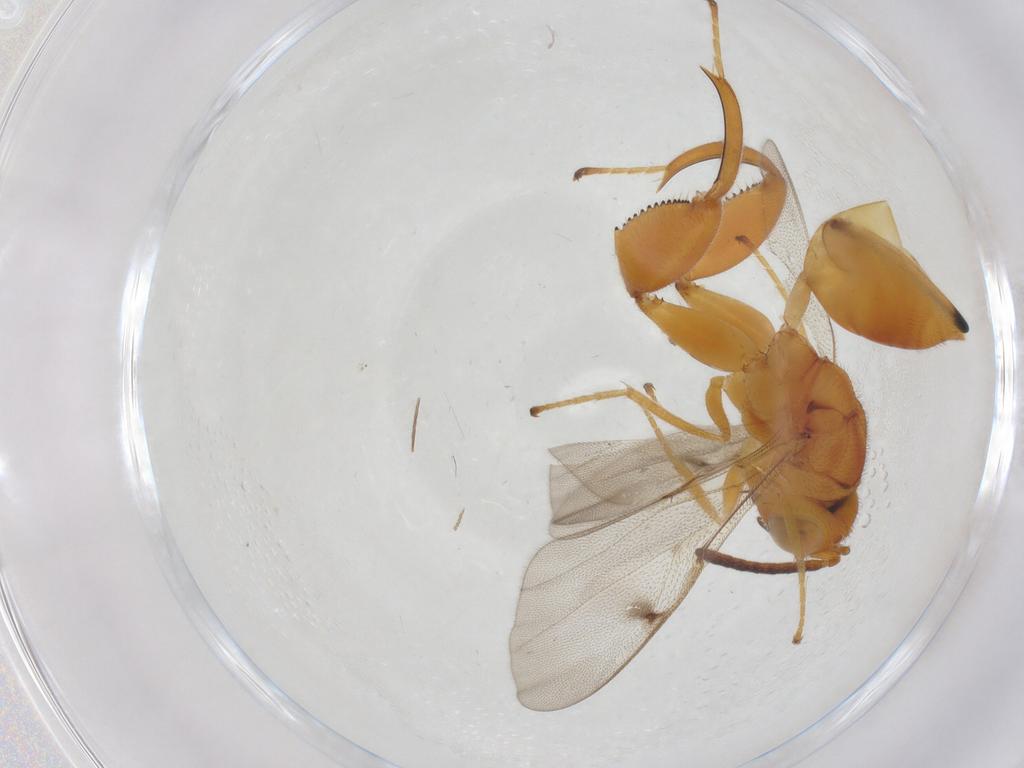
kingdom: Animalia
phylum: Arthropoda
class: Insecta
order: Hymenoptera
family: Chalcididae
